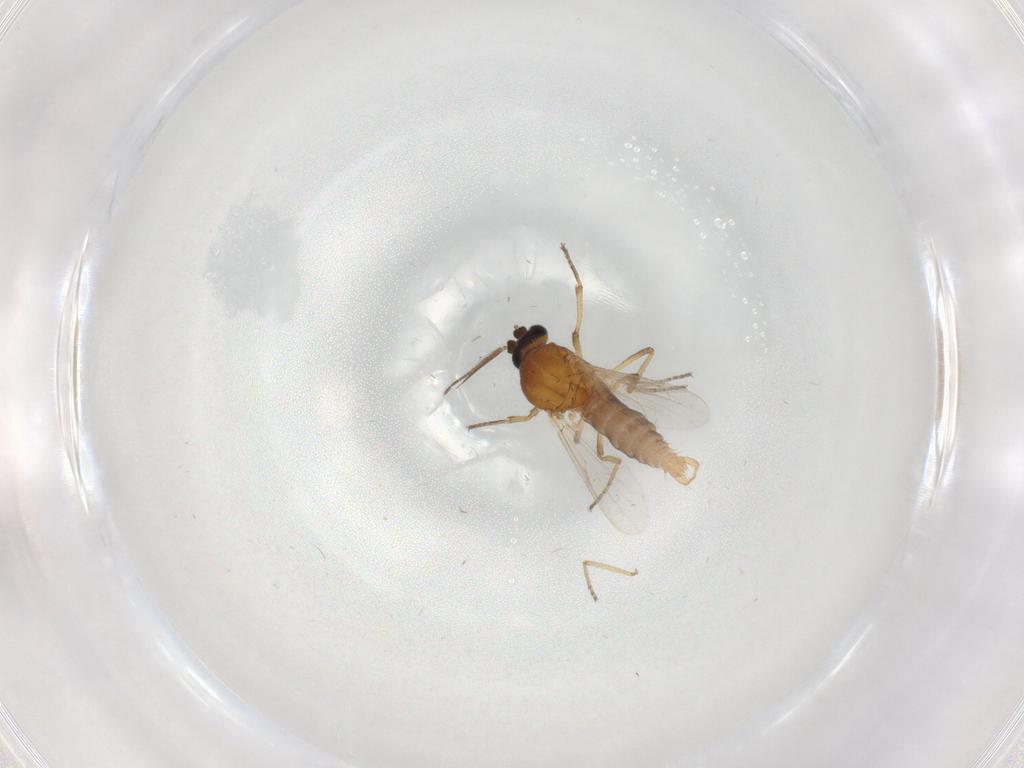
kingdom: Animalia
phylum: Arthropoda
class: Insecta
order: Diptera
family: Ceratopogonidae
